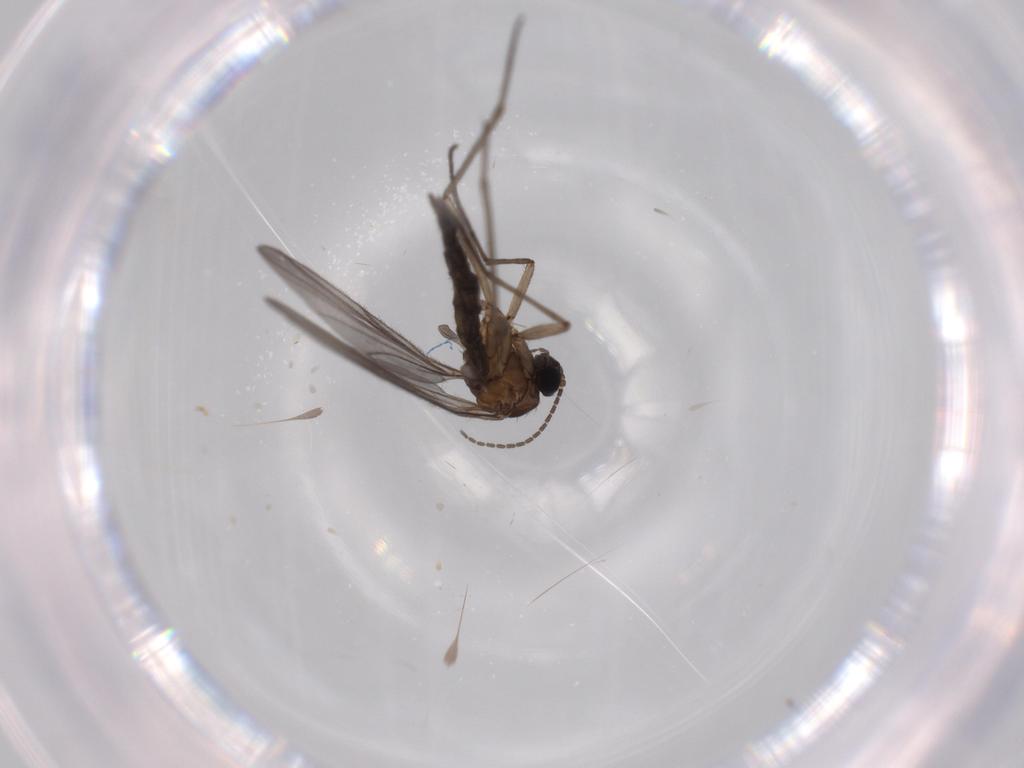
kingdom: Animalia
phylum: Arthropoda
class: Insecta
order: Diptera
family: Sciaridae
